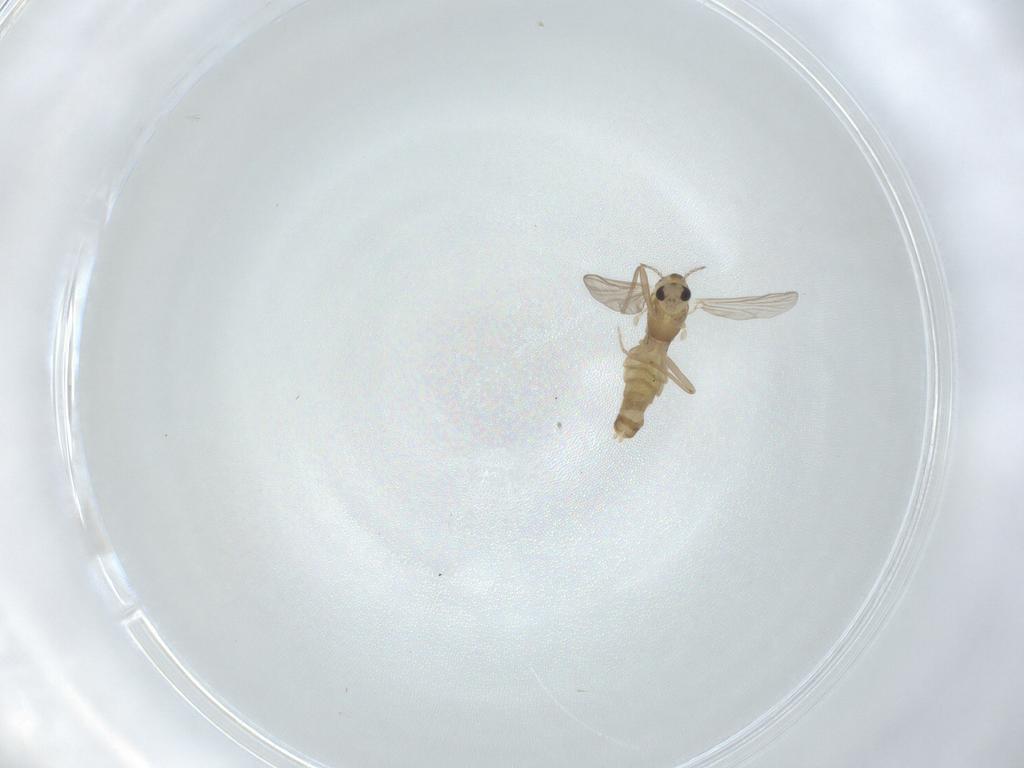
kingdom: Animalia
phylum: Arthropoda
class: Insecta
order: Diptera
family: Chironomidae
